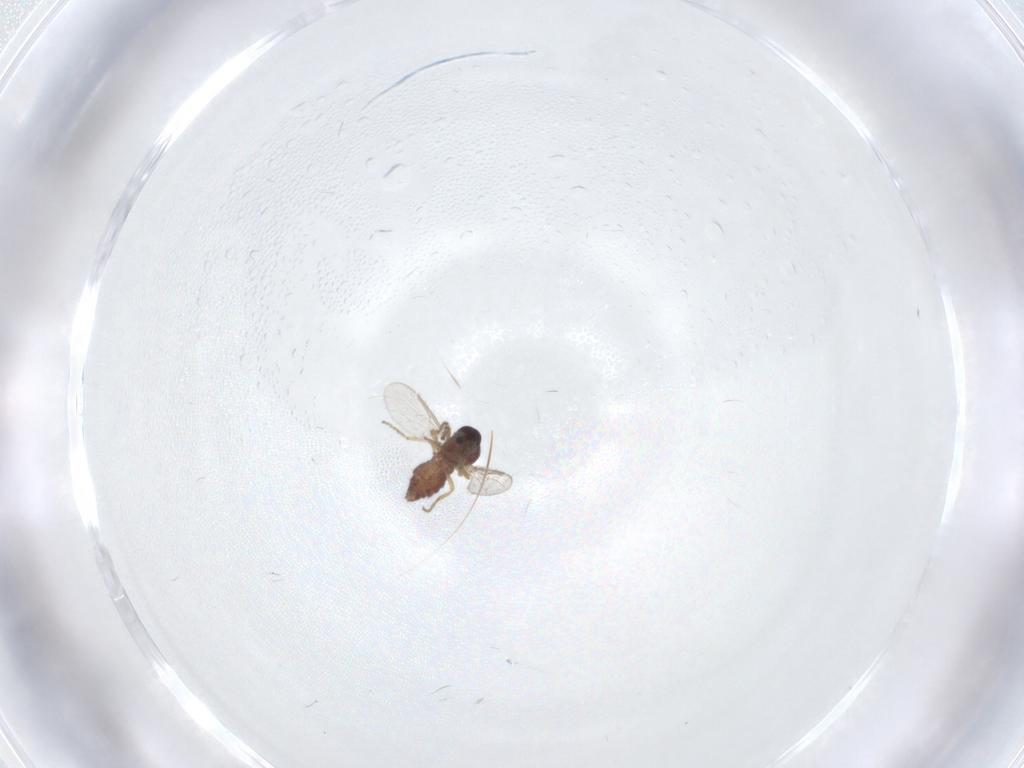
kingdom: Animalia
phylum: Arthropoda
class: Insecta
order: Diptera
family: Ceratopogonidae
